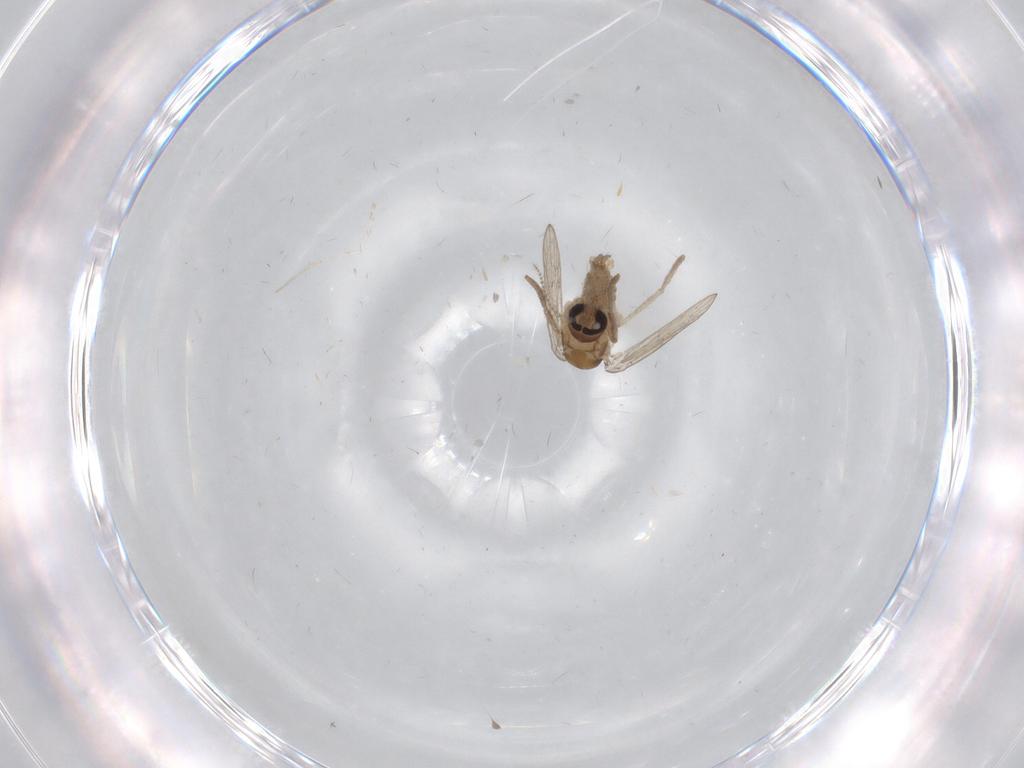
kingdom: Animalia
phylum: Arthropoda
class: Insecta
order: Diptera
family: Psychodidae
